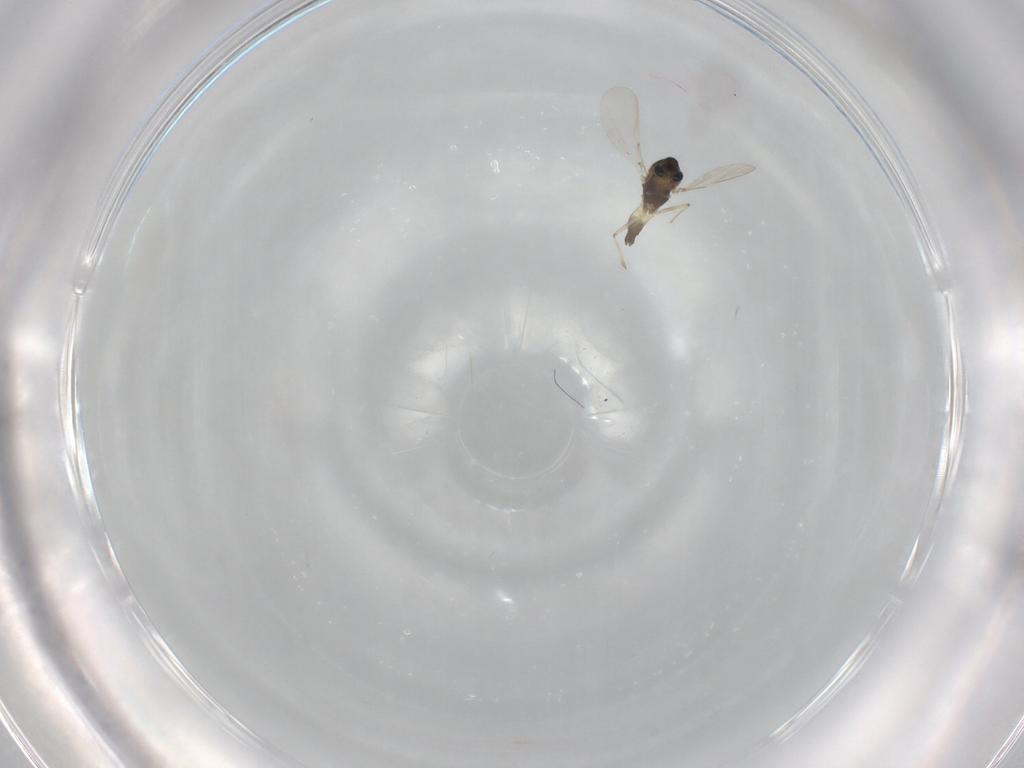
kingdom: Animalia
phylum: Arthropoda
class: Insecta
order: Diptera
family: Chironomidae
